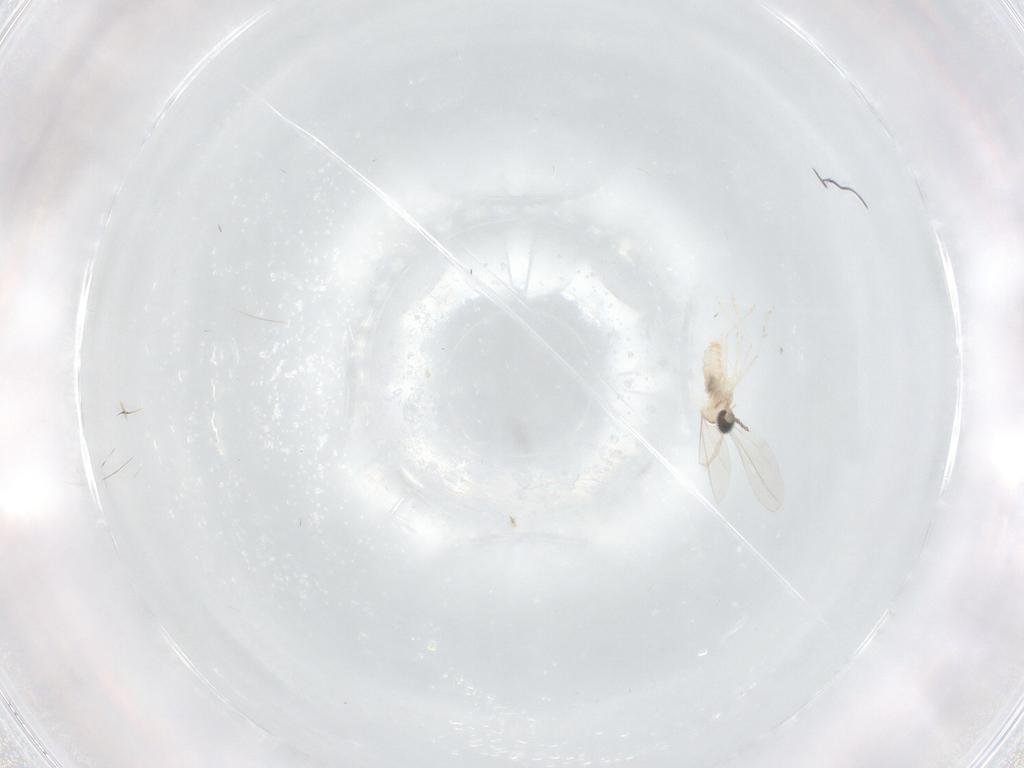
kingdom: Animalia
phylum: Arthropoda
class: Insecta
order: Diptera
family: Cecidomyiidae
